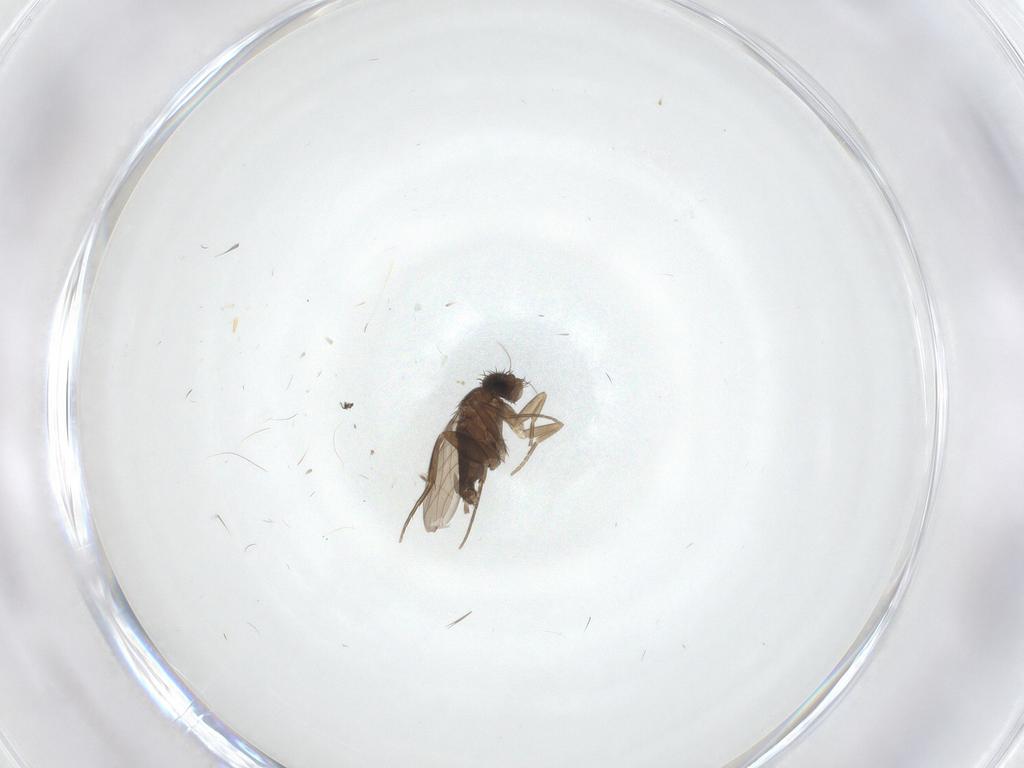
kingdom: Animalia
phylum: Arthropoda
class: Insecta
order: Diptera
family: Phoridae
